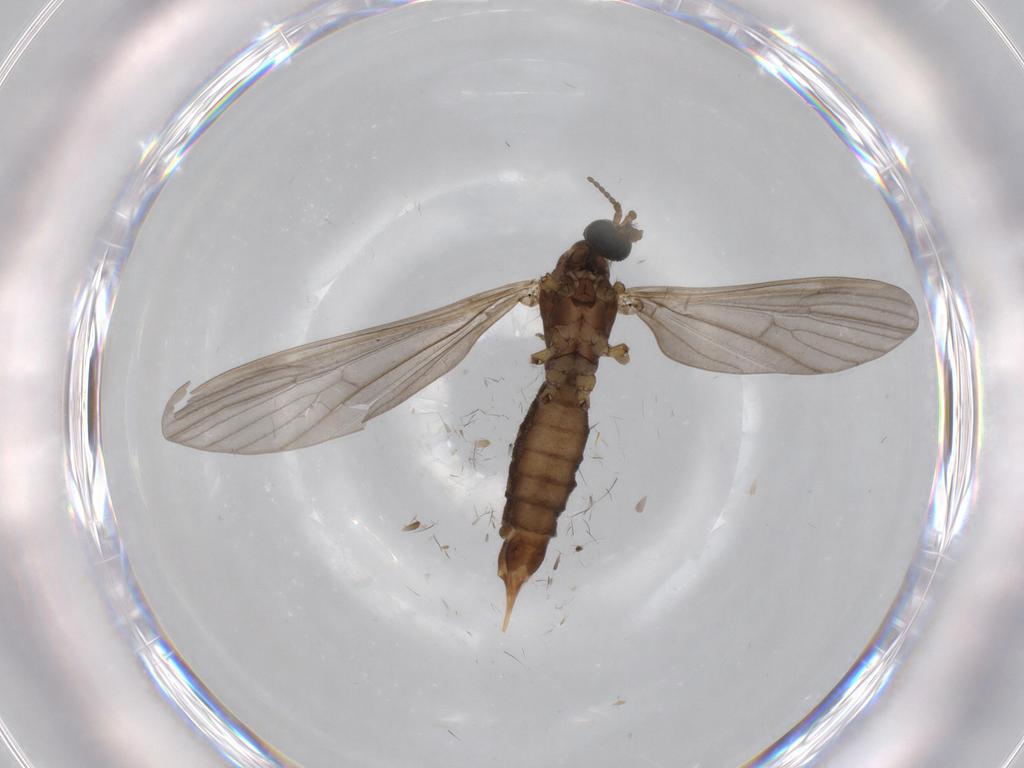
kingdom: Animalia
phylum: Arthropoda
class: Insecta
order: Diptera
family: Limoniidae
